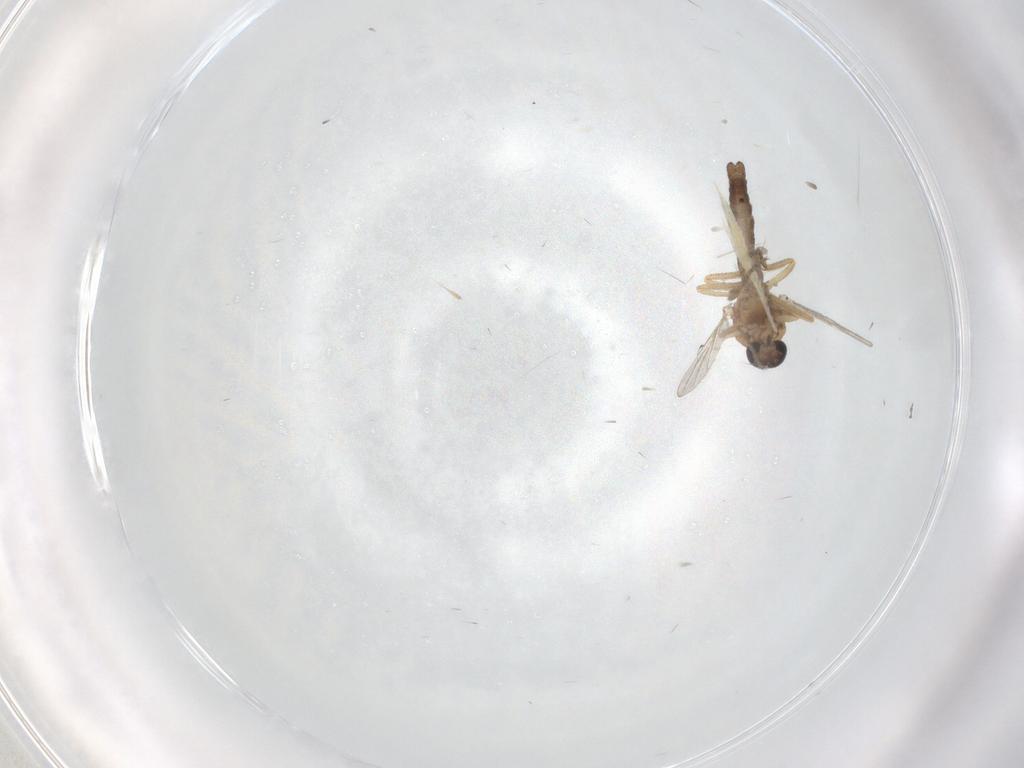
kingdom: Animalia
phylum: Arthropoda
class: Insecta
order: Diptera
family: Ceratopogonidae
